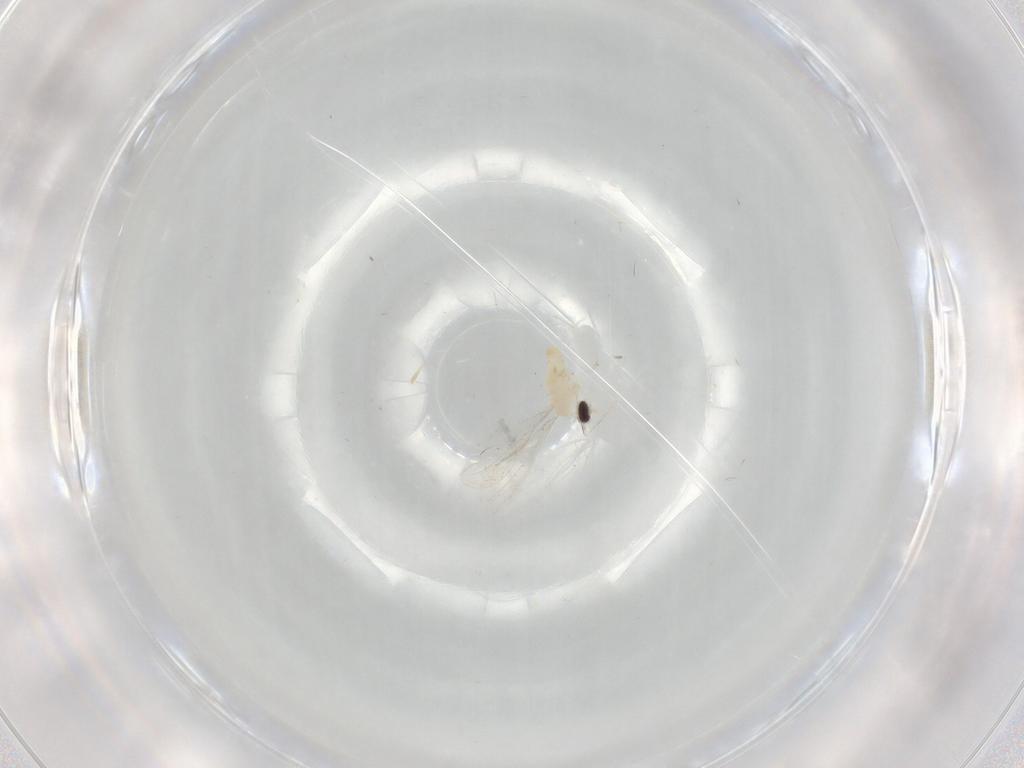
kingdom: Animalia
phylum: Arthropoda
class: Insecta
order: Diptera
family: Cecidomyiidae
